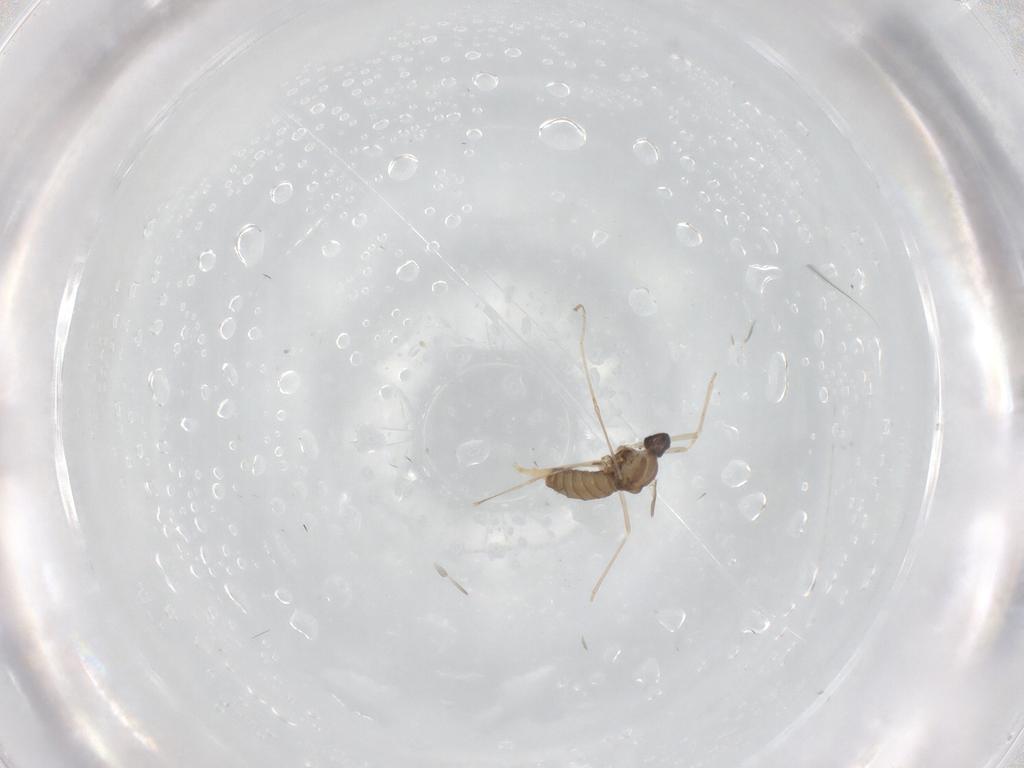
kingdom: Animalia
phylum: Arthropoda
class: Insecta
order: Diptera
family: Cecidomyiidae
